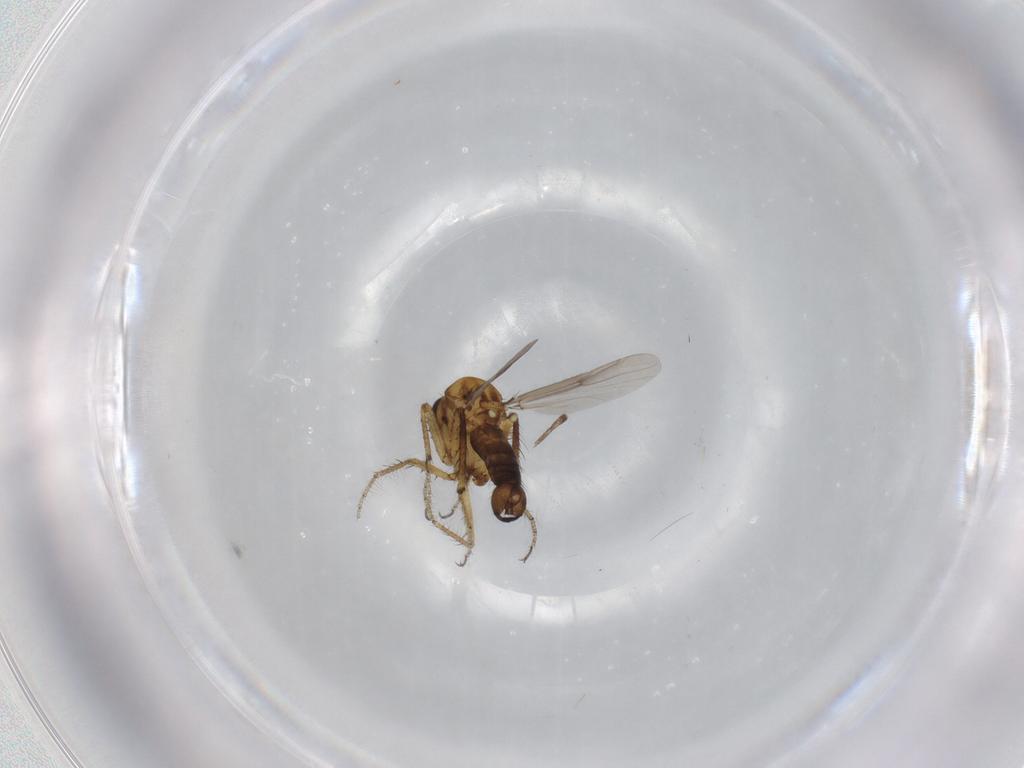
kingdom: Animalia
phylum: Arthropoda
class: Insecta
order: Diptera
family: Ceratopogonidae
